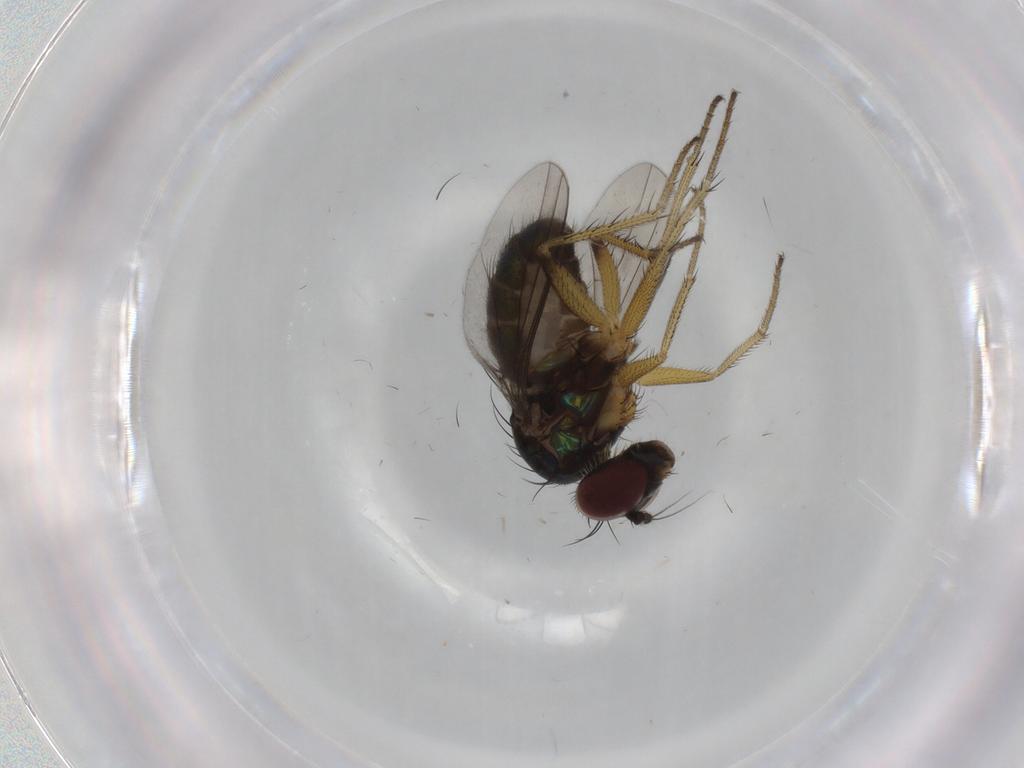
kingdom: Animalia
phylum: Arthropoda
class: Insecta
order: Diptera
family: Dolichopodidae
